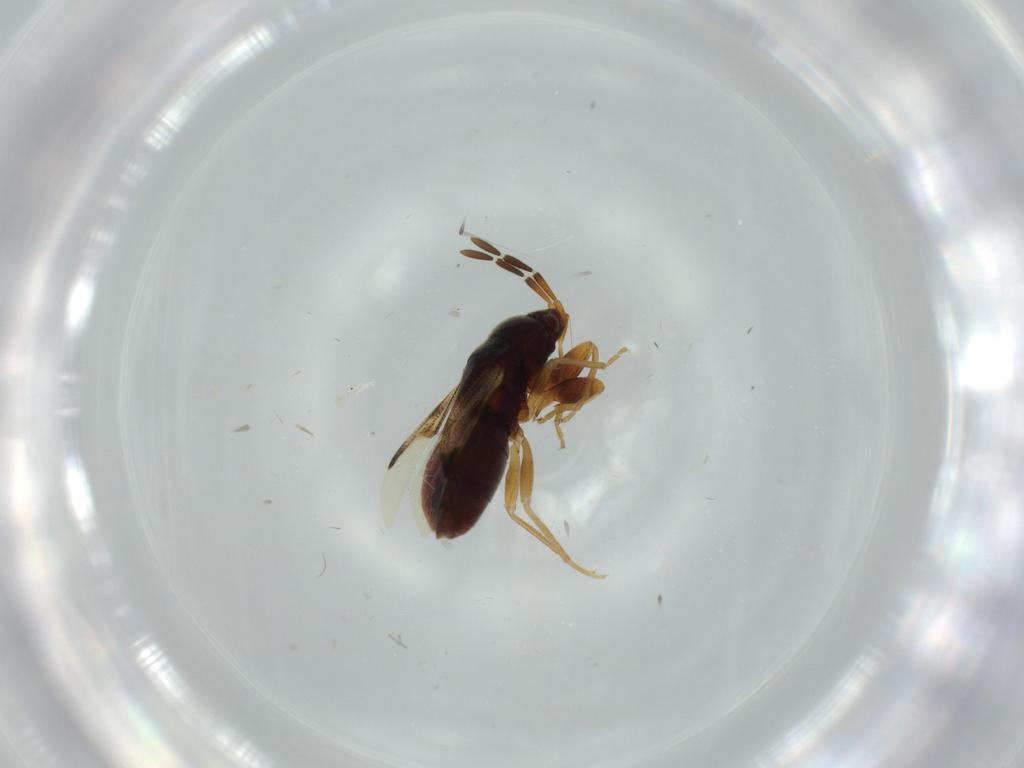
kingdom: Animalia
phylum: Arthropoda
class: Insecta
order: Hemiptera
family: Rhyparochromidae
